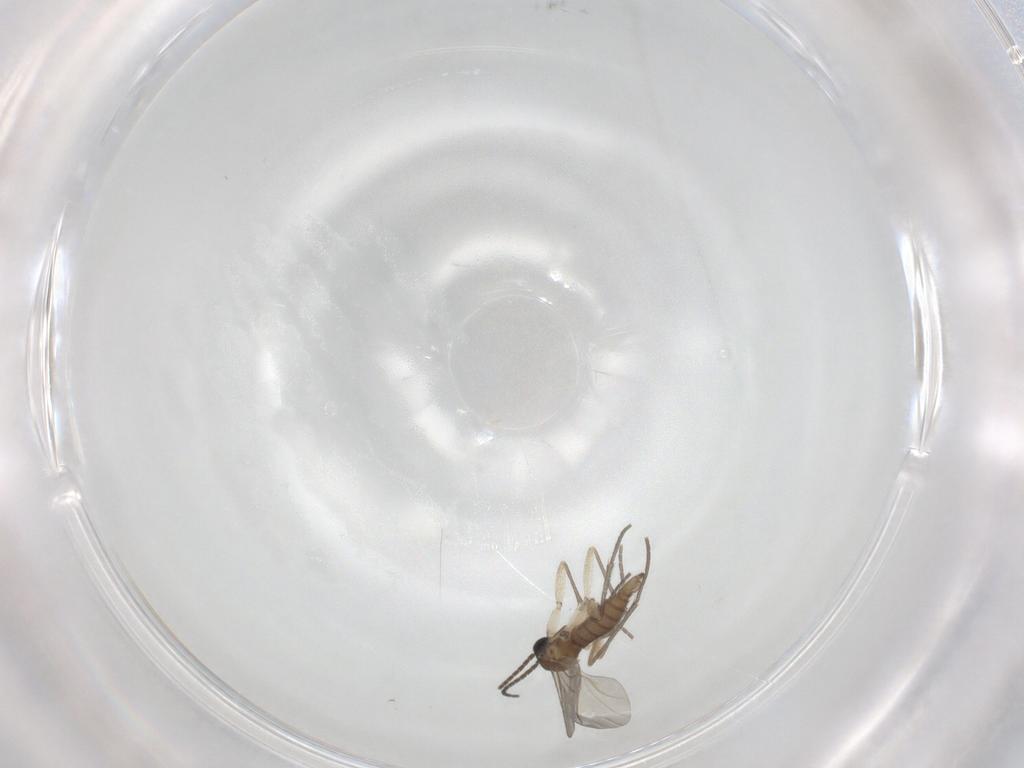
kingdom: Animalia
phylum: Arthropoda
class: Insecta
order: Diptera
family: Sciaridae
